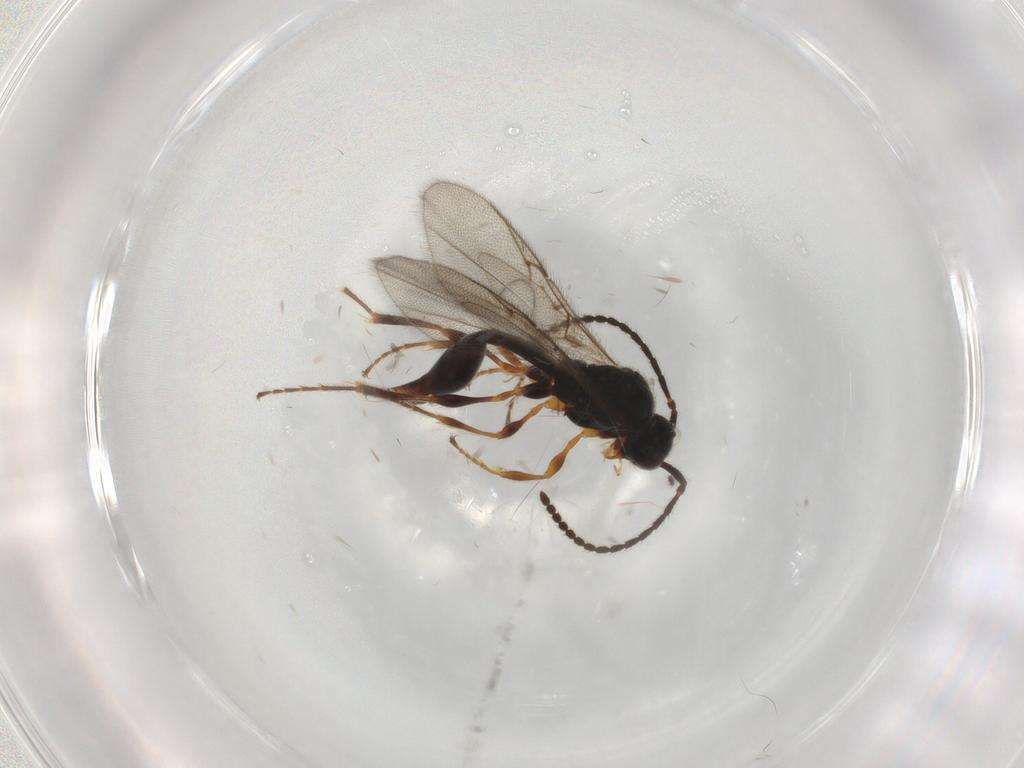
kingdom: Animalia
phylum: Arthropoda
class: Insecta
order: Hymenoptera
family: Diapriidae
